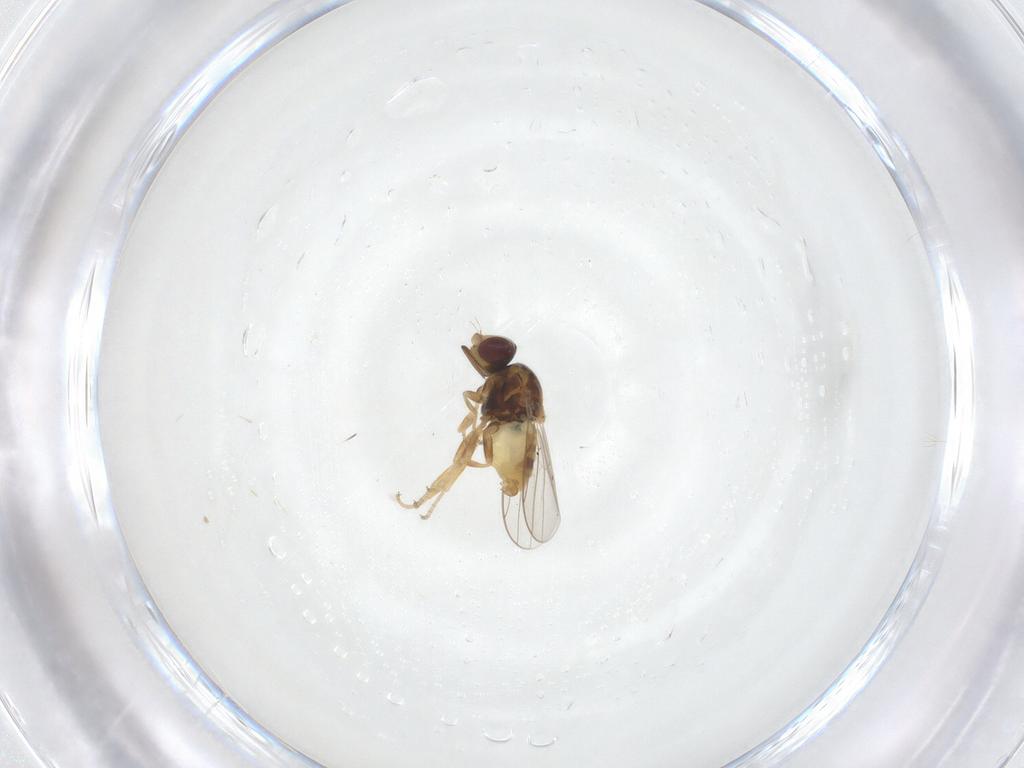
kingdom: Animalia
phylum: Arthropoda
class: Insecta
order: Diptera
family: Chloropidae
